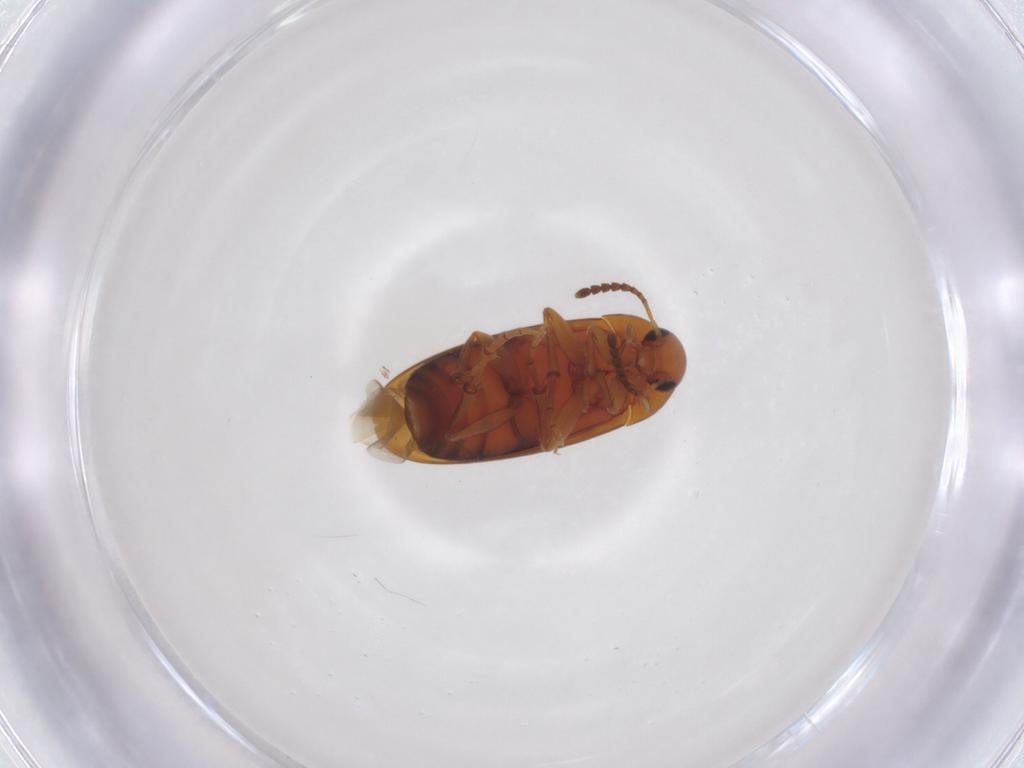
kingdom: Animalia
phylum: Arthropoda
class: Insecta
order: Coleoptera
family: Scraptiidae
